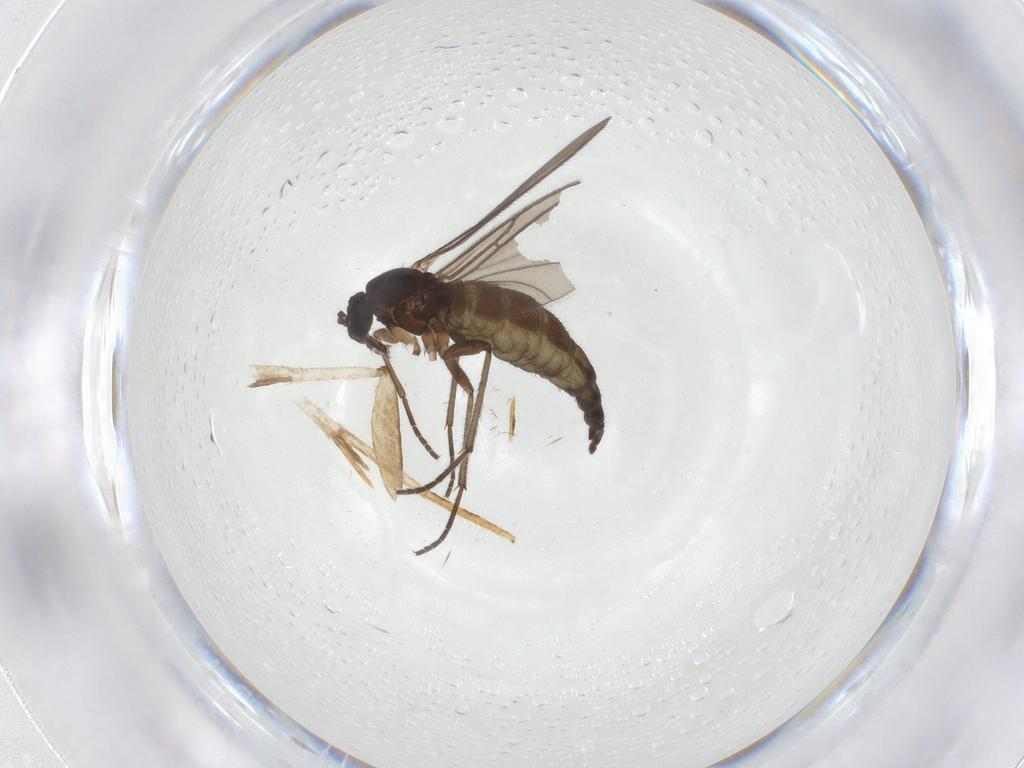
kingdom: Animalia
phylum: Arthropoda
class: Insecta
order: Diptera
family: Sciaridae
